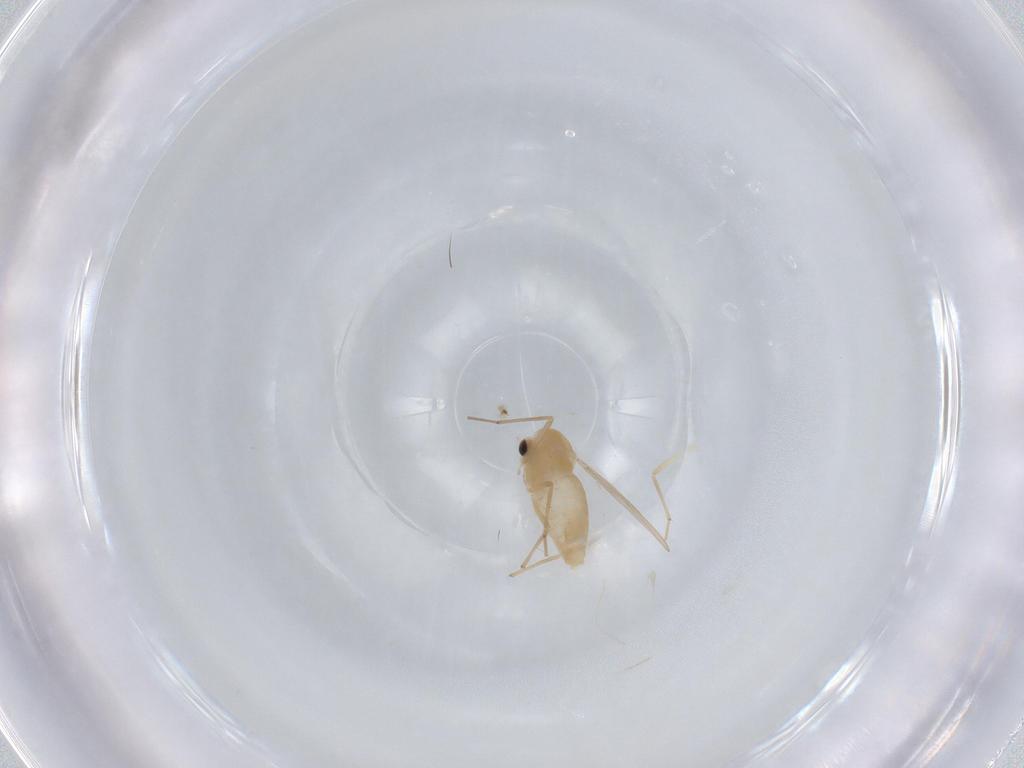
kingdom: Animalia
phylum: Arthropoda
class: Insecta
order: Diptera
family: Chironomidae
